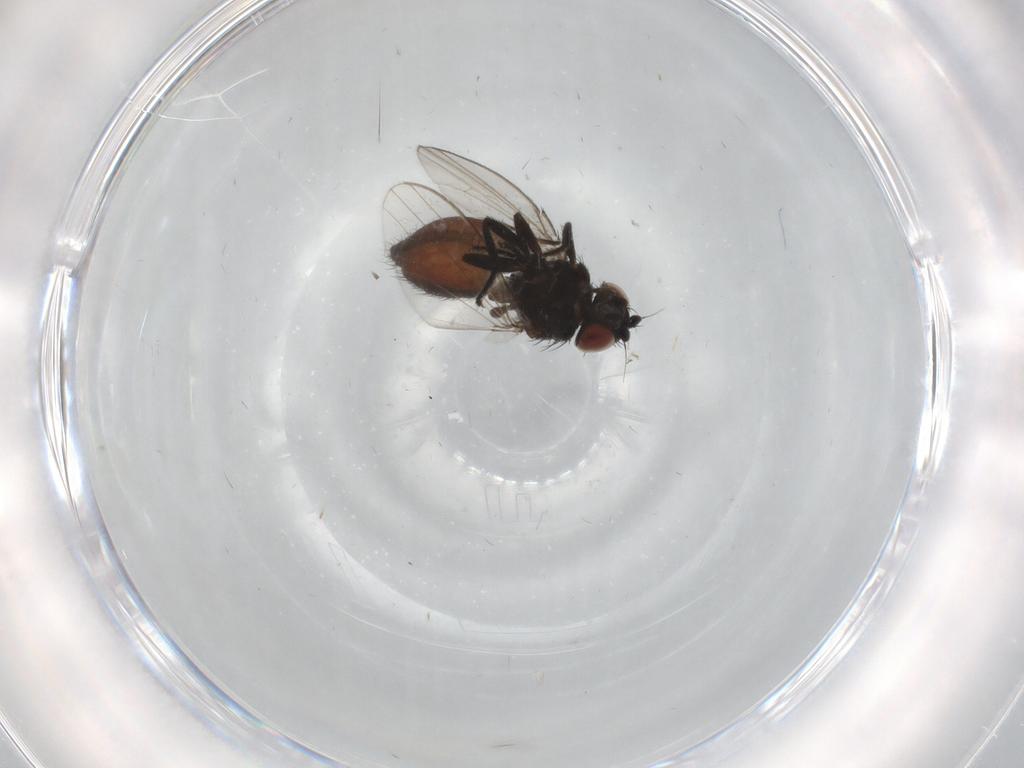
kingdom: Animalia
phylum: Arthropoda
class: Insecta
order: Diptera
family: Milichiidae
